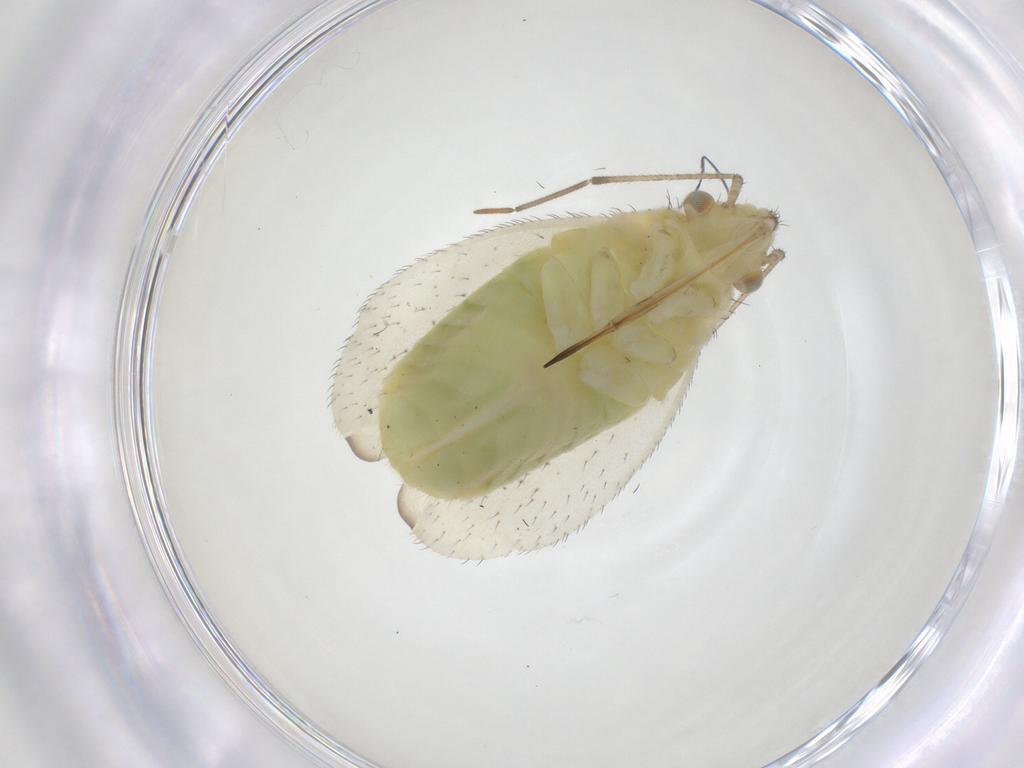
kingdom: Animalia
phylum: Arthropoda
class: Insecta
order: Hemiptera
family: Miridae
